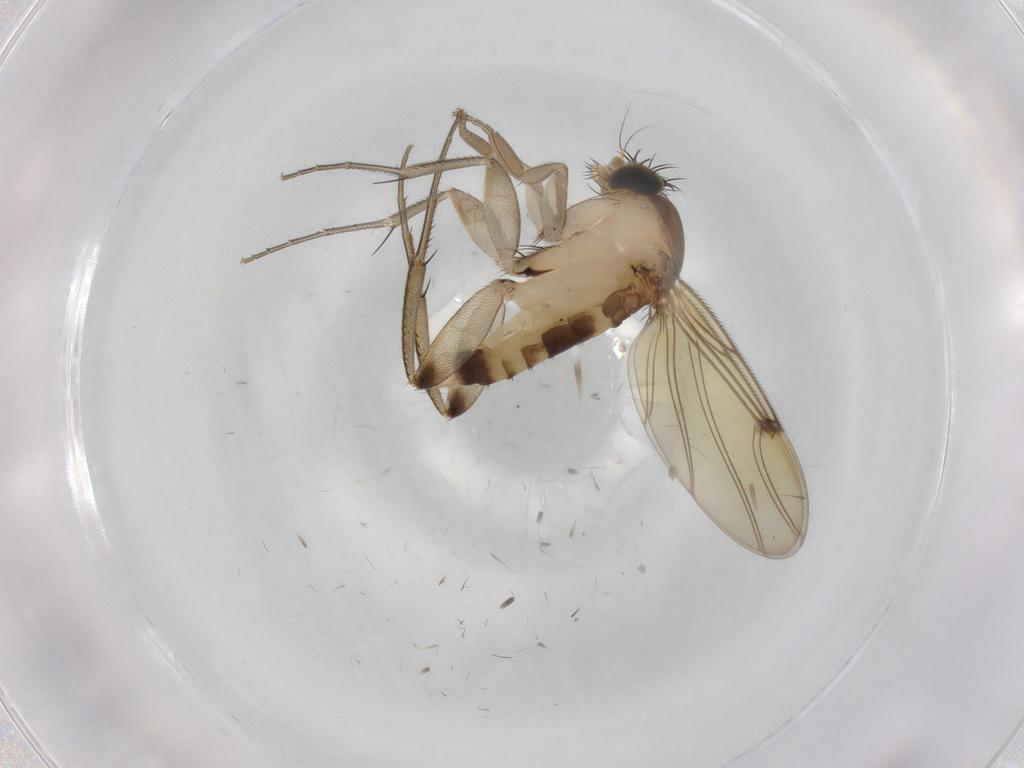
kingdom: Animalia
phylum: Arthropoda
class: Insecta
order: Diptera
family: Phoridae
